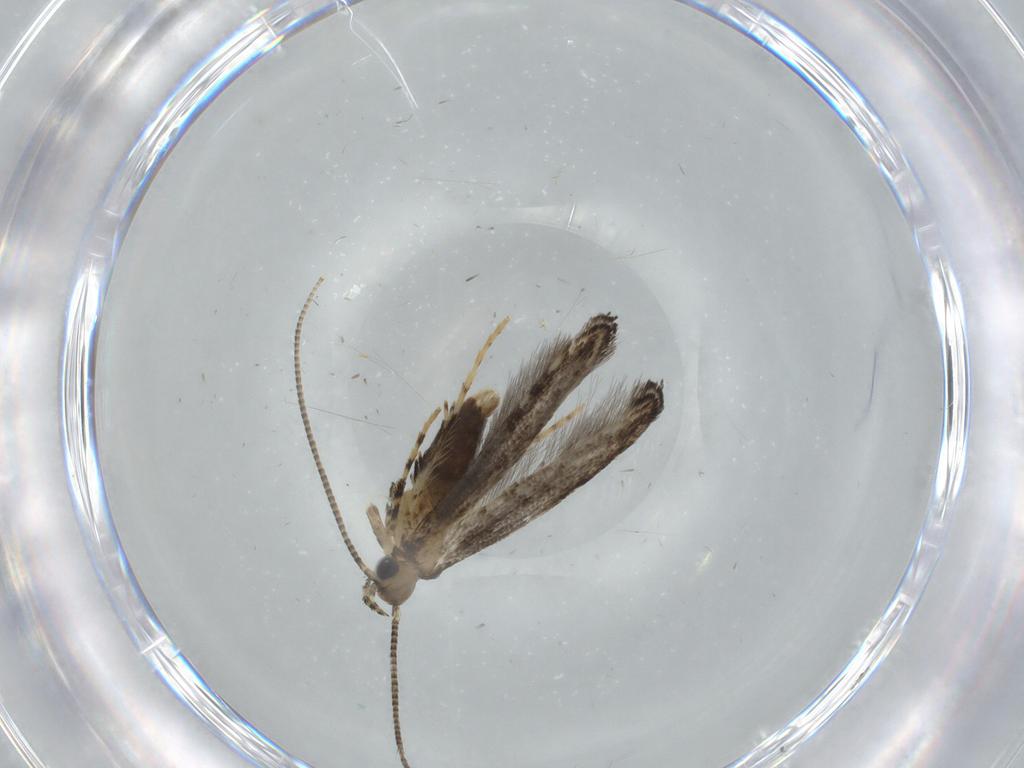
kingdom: Animalia
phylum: Arthropoda
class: Insecta
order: Lepidoptera
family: Gracillariidae
